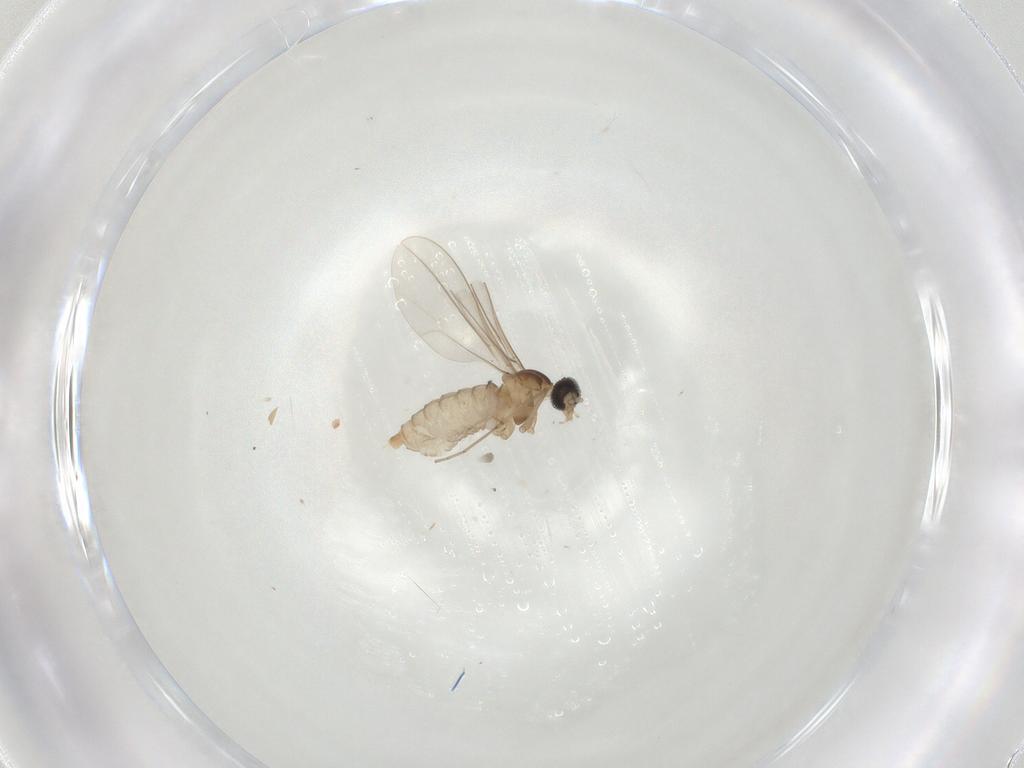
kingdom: Animalia
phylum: Arthropoda
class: Insecta
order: Diptera
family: Cecidomyiidae
